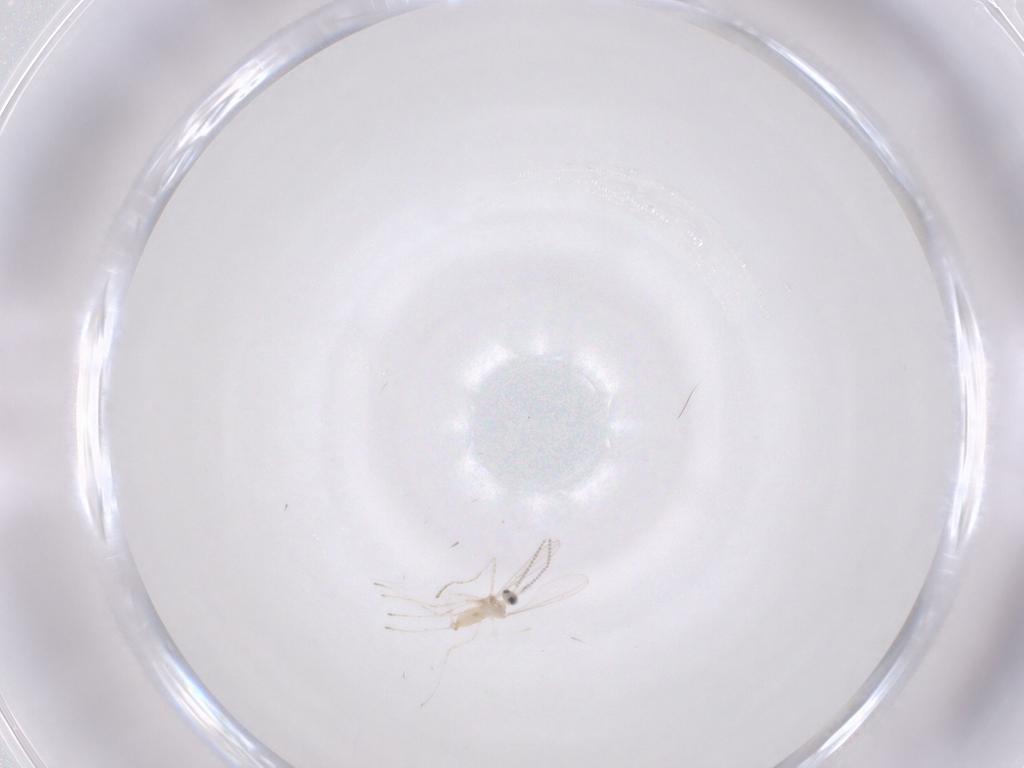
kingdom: Animalia
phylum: Arthropoda
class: Insecta
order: Diptera
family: Cecidomyiidae
